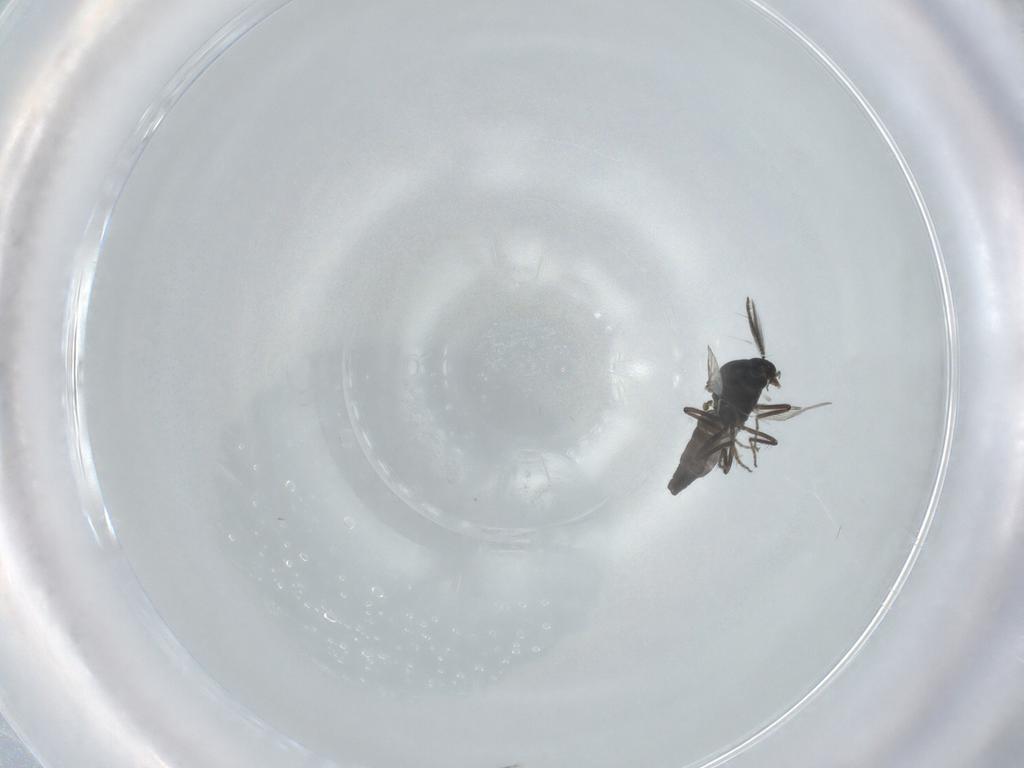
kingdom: Animalia
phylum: Arthropoda
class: Insecta
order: Diptera
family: Ceratopogonidae
